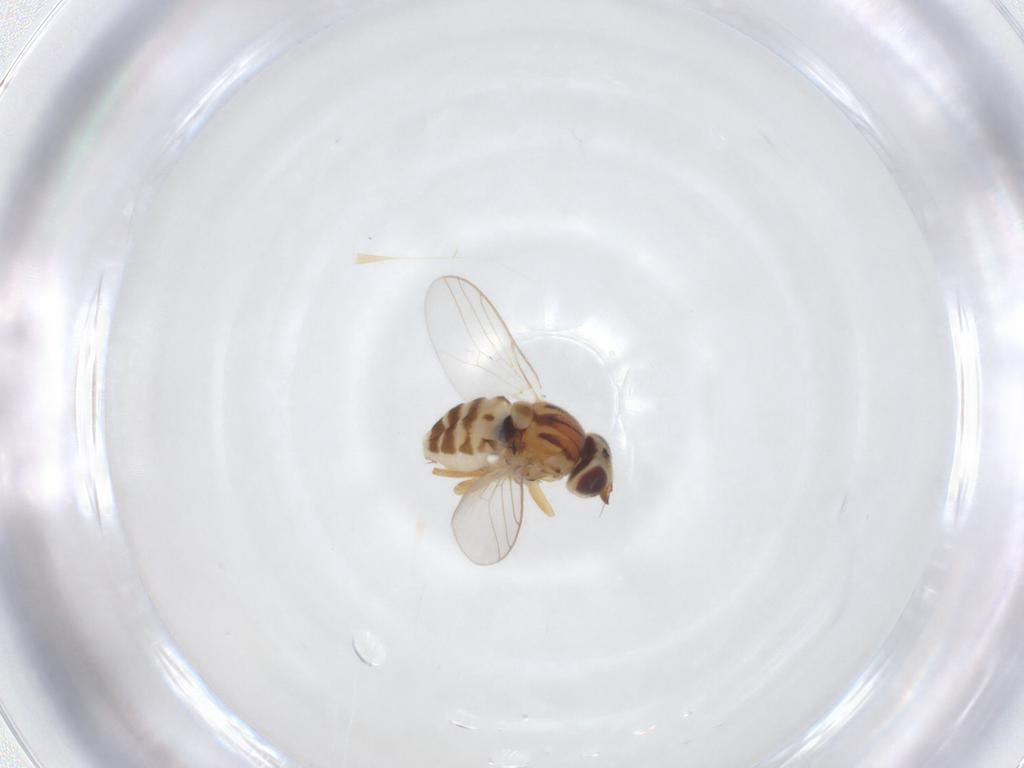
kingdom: Animalia
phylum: Arthropoda
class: Insecta
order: Diptera
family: Chloropidae
